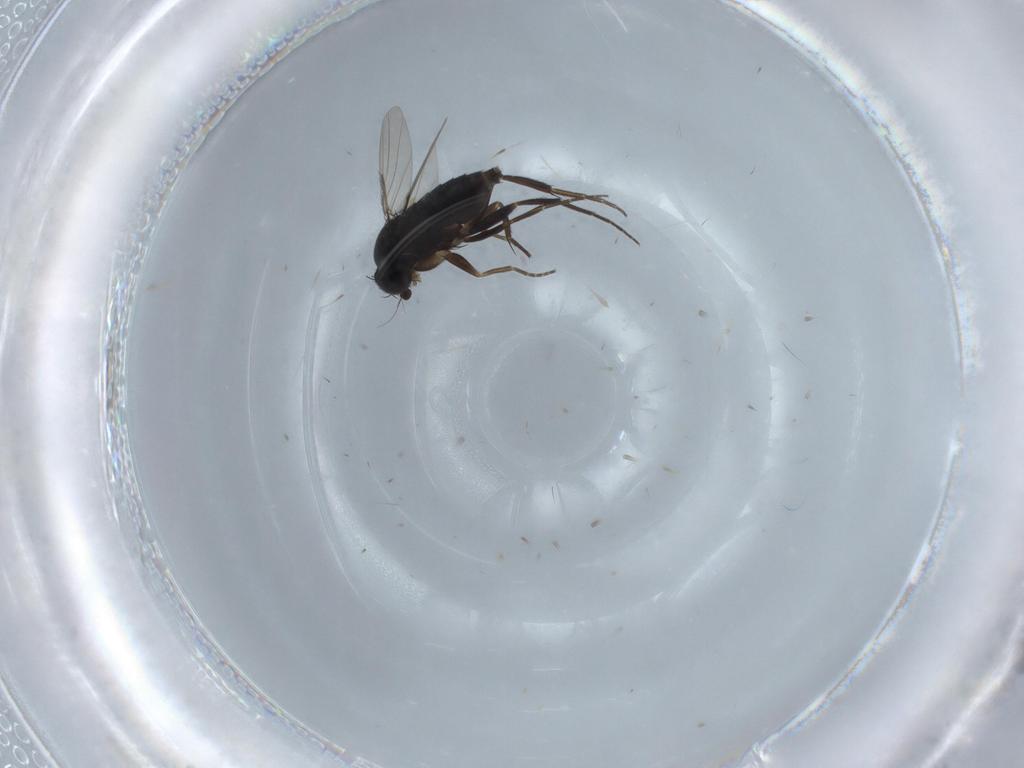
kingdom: Animalia
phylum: Arthropoda
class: Insecta
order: Diptera
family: Phoridae
